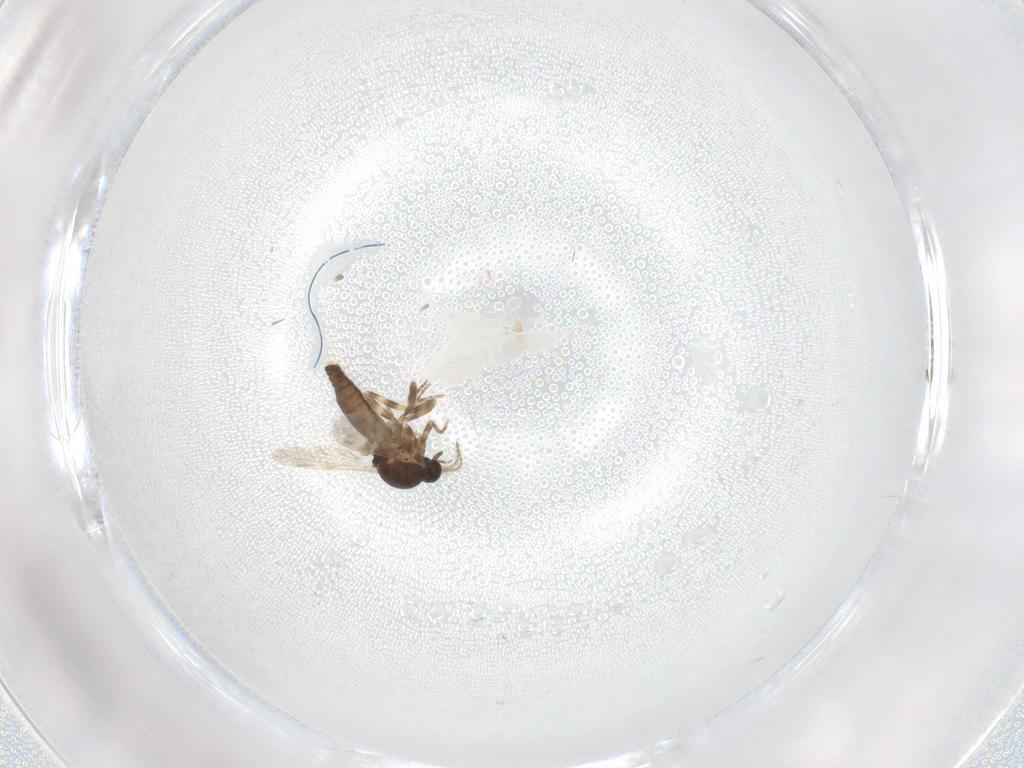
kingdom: Animalia
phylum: Arthropoda
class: Insecta
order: Diptera
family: Ceratopogonidae
